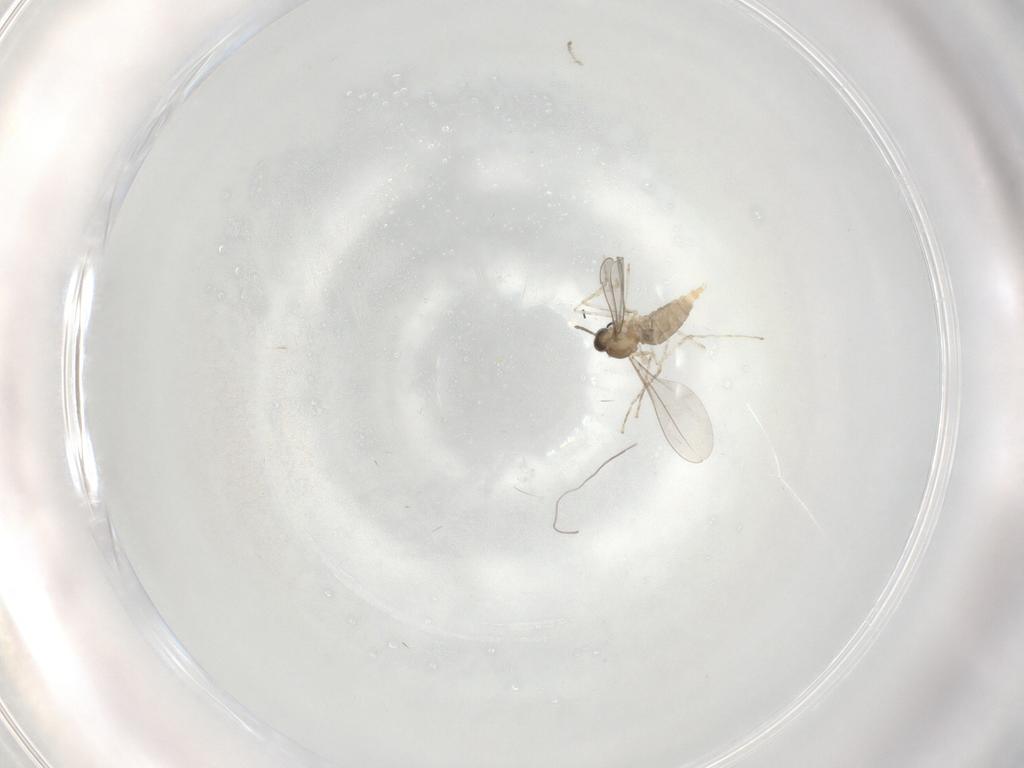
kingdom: Animalia
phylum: Arthropoda
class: Insecta
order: Diptera
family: Cecidomyiidae
